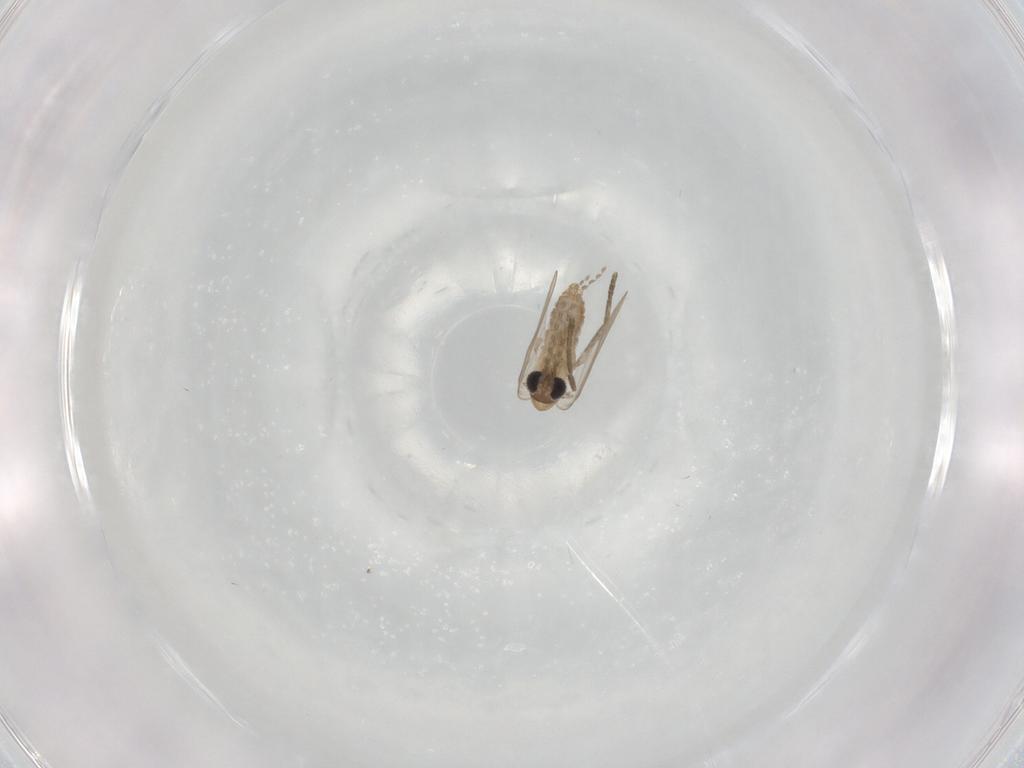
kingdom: Animalia
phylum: Arthropoda
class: Insecta
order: Diptera
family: Psychodidae
